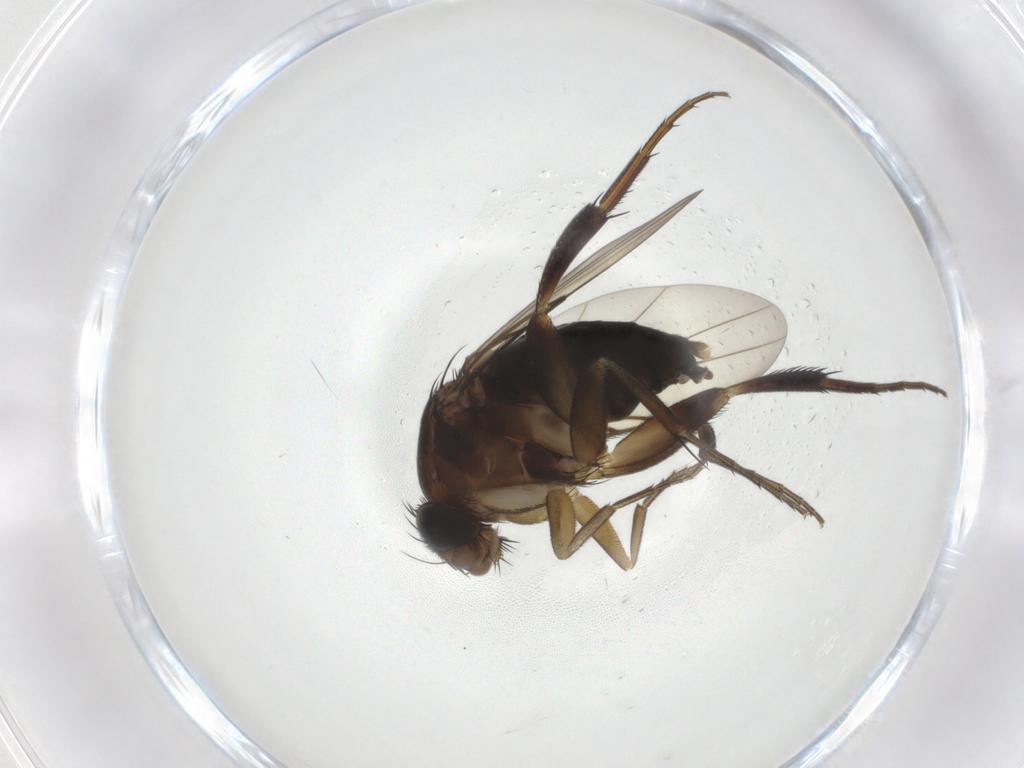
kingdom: Animalia
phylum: Arthropoda
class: Insecta
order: Diptera
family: Phoridae
